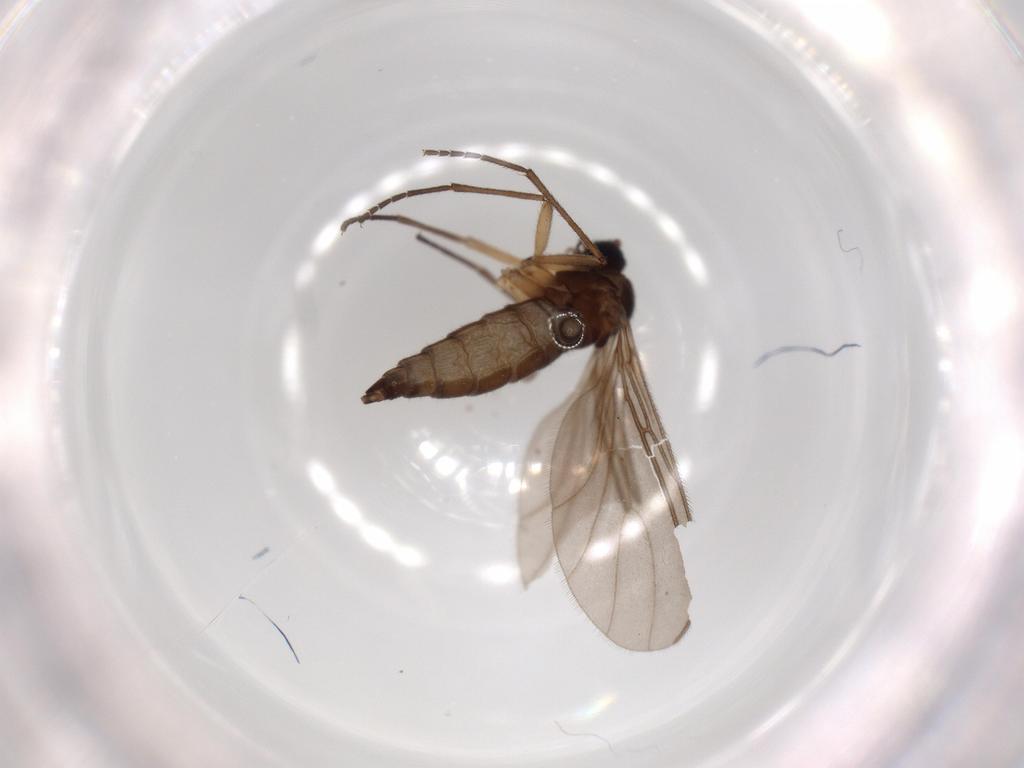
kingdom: Animalia
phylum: Arthropoda
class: Insecta
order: Diptera
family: Sciaridae
